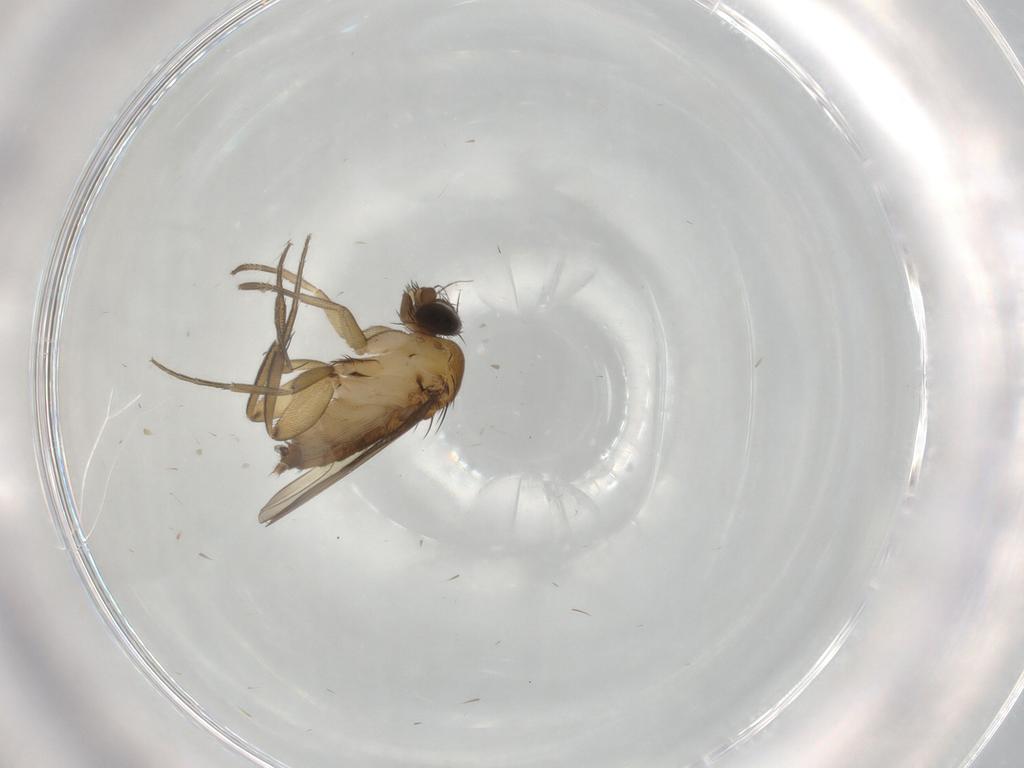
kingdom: Animalia
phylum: Arthropoda
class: Insecta
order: Diptera
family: Phoridae
